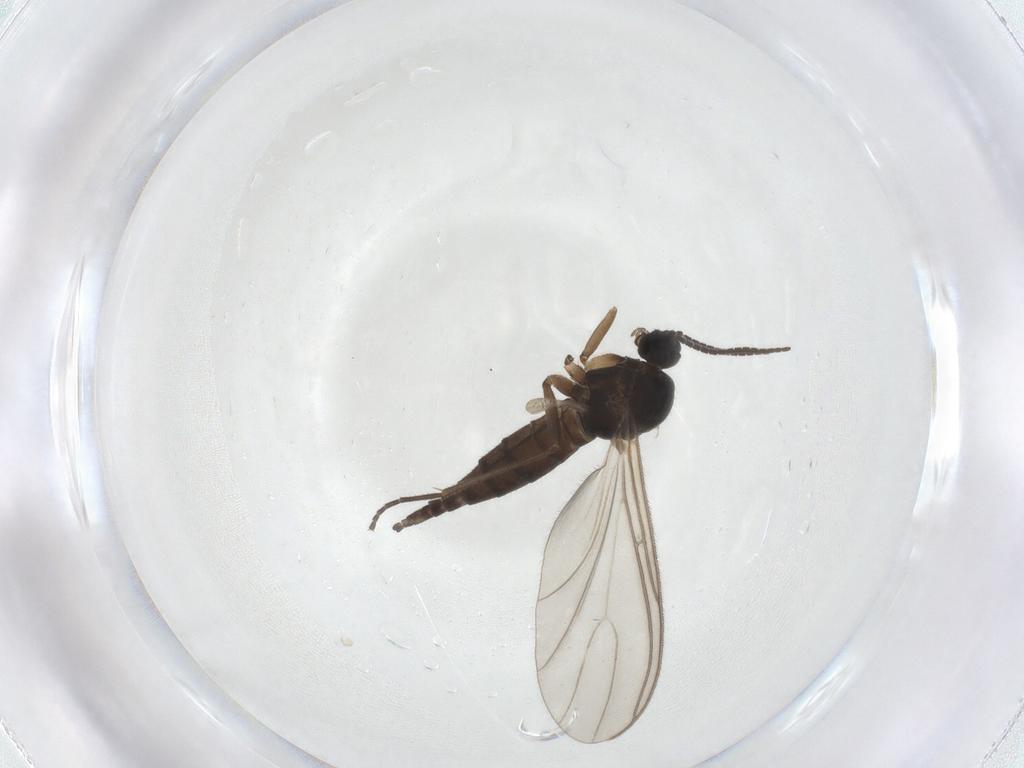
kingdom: Animalia
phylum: Arthropoda
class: Insecta
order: Diptera
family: Sciaridae
